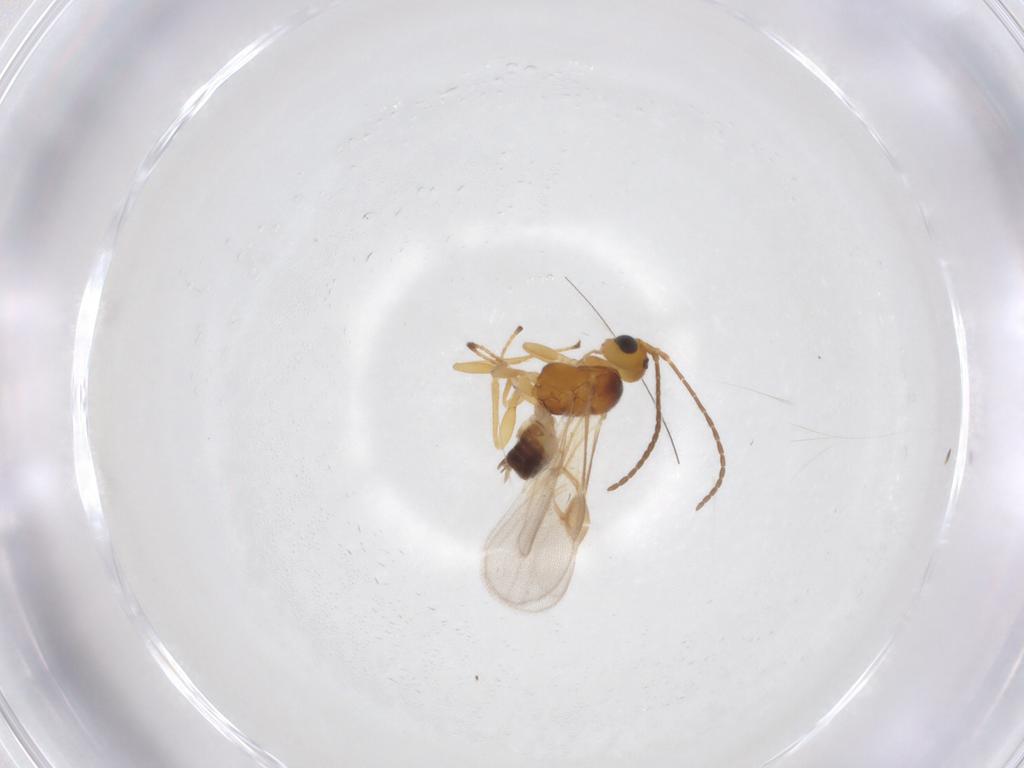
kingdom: Animalia
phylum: Arthropoda
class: Insecta
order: Hymenoptera
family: Braconidae
